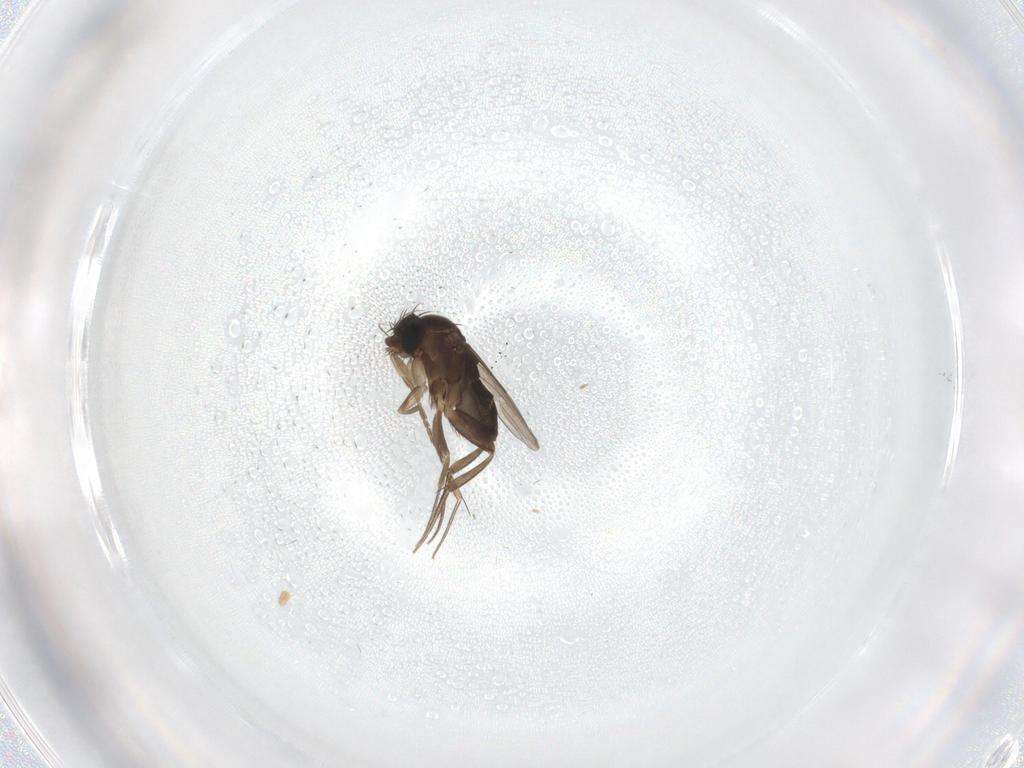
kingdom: Animalia
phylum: Arthropoda
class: Insecta
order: Diptera
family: Phoridae
